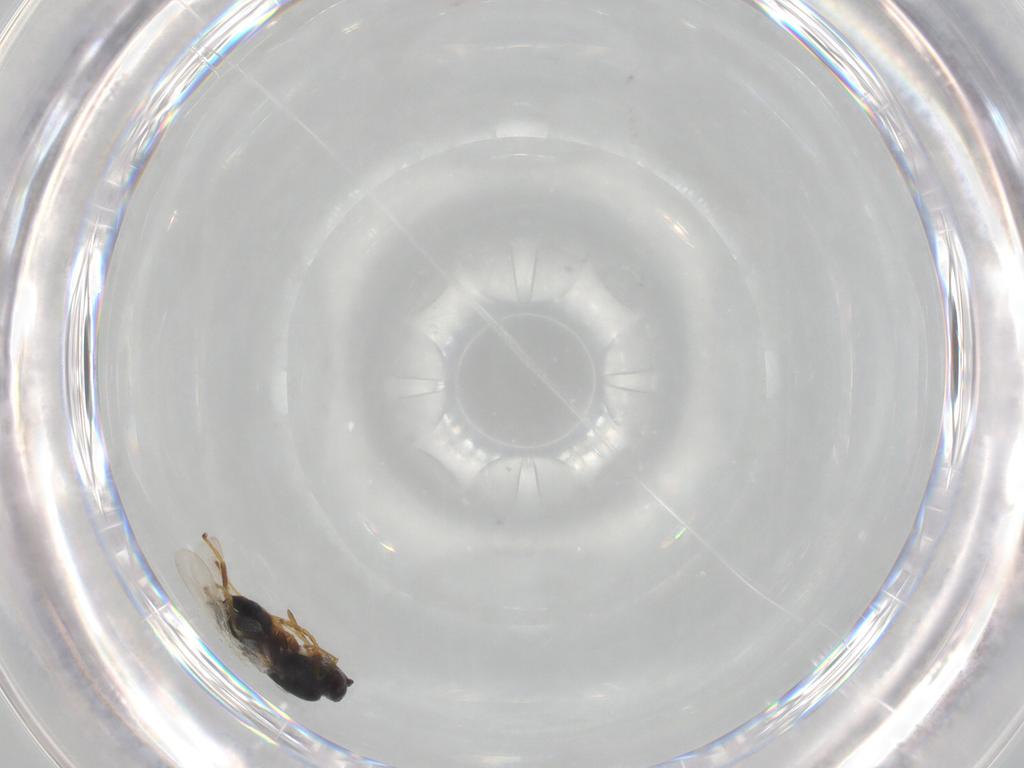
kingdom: Animalia
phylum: Arthropoda
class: Insecta
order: Hymenoptera
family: Cynipidae
